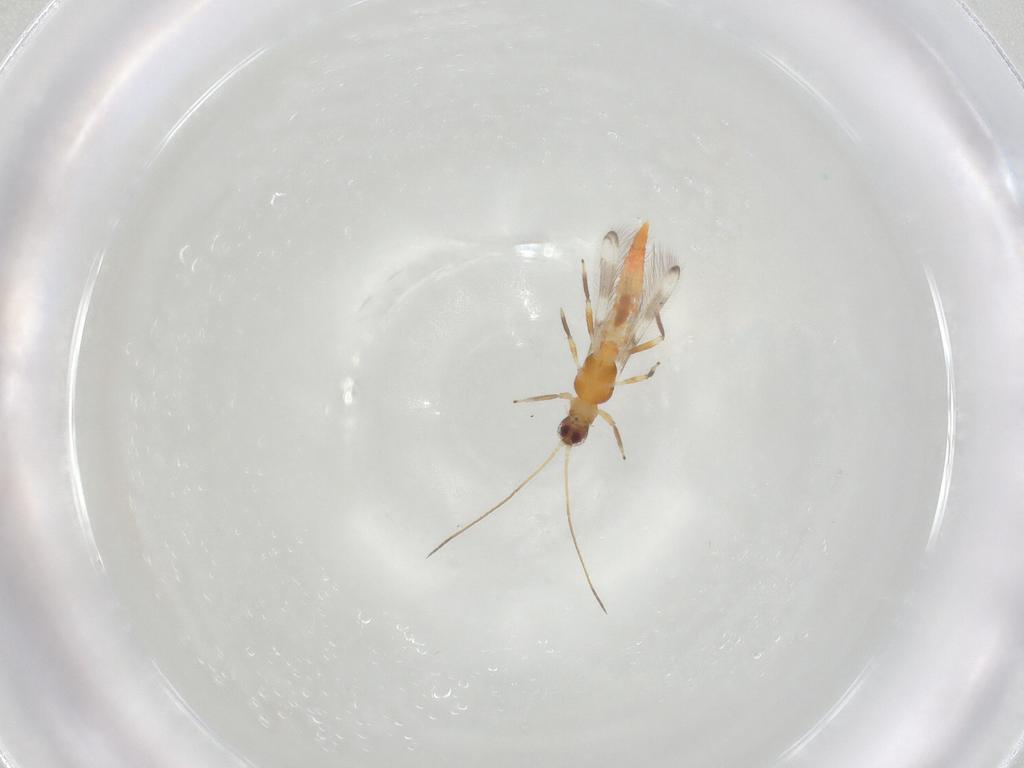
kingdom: Animalia
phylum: Arthropoda
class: Insecta
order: Thysanoptera
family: Aeolothripidae
